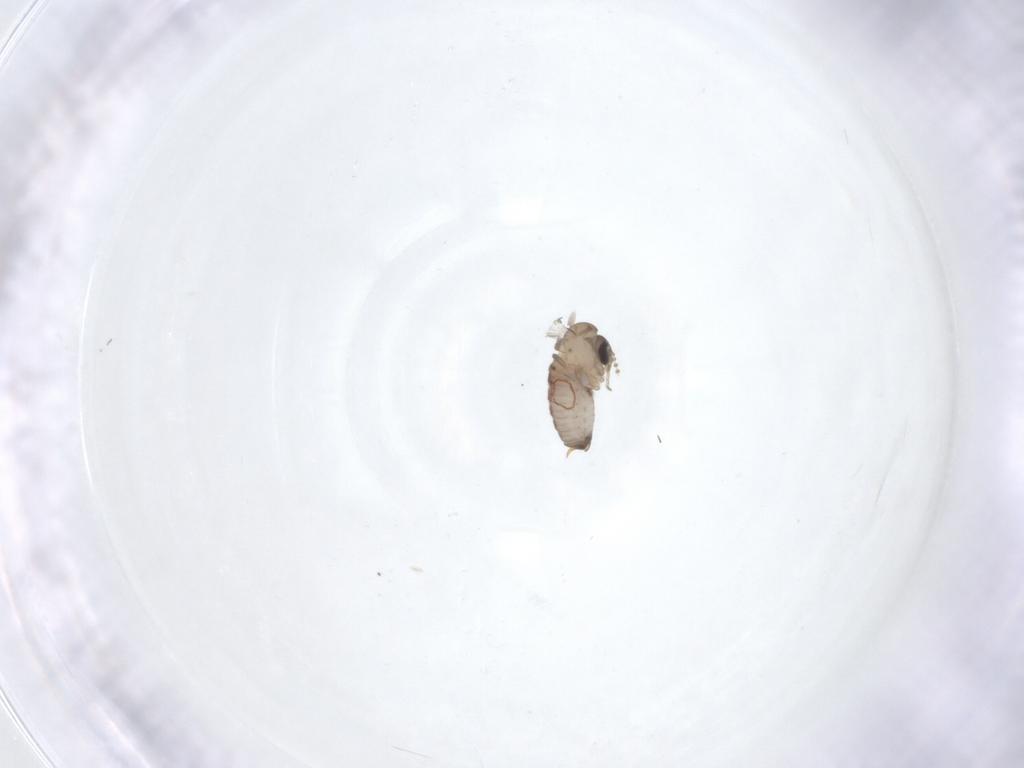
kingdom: Animalia
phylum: Arthropoda
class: Insecta
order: Diptera
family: Psychodidae
